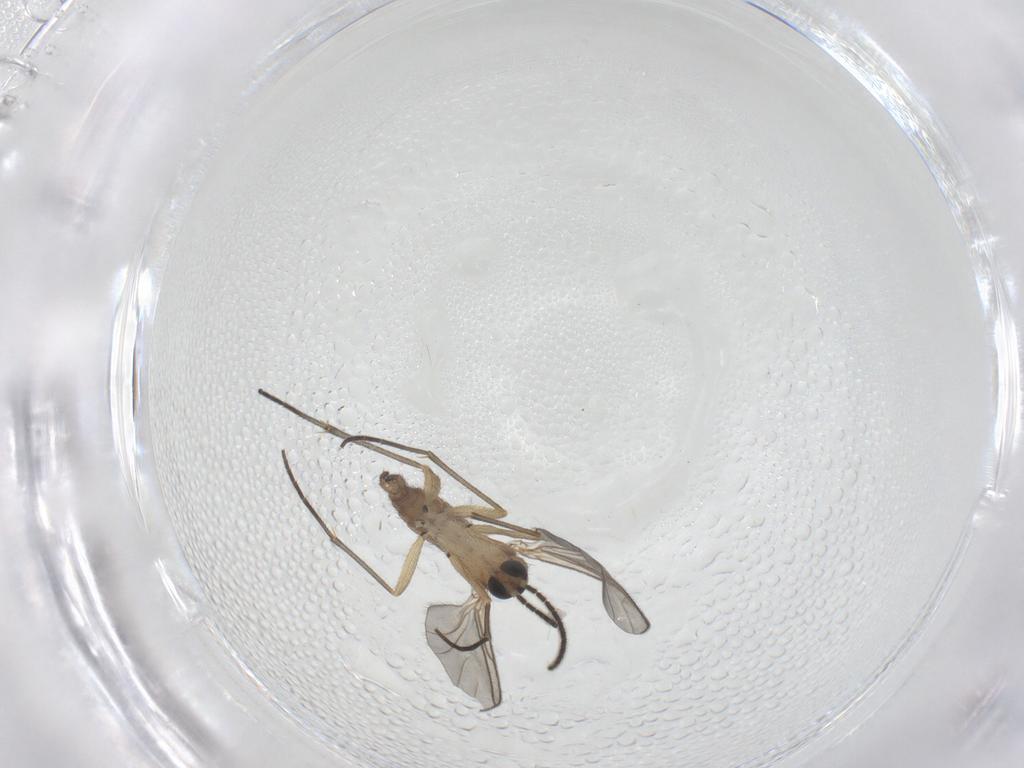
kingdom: Animalia
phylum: Arthropoda
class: Insecta
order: Diptera
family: Sciaridae
